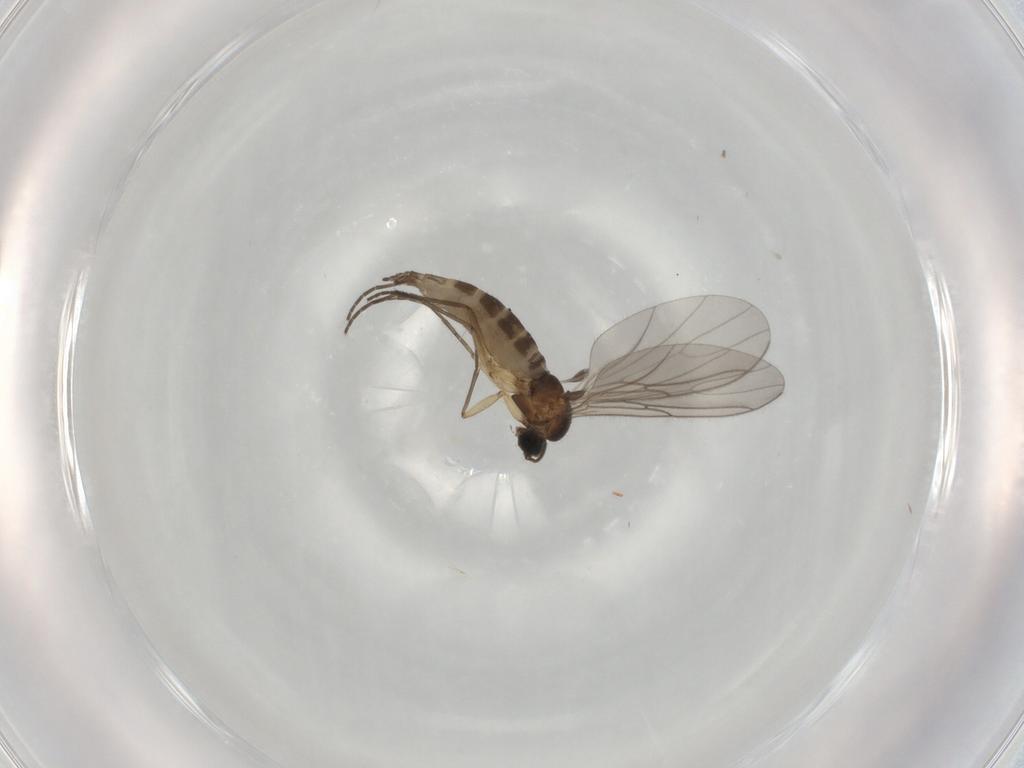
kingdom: Animalia
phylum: Arthropoda
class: Insecta
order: Diptera
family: Sciaridae
